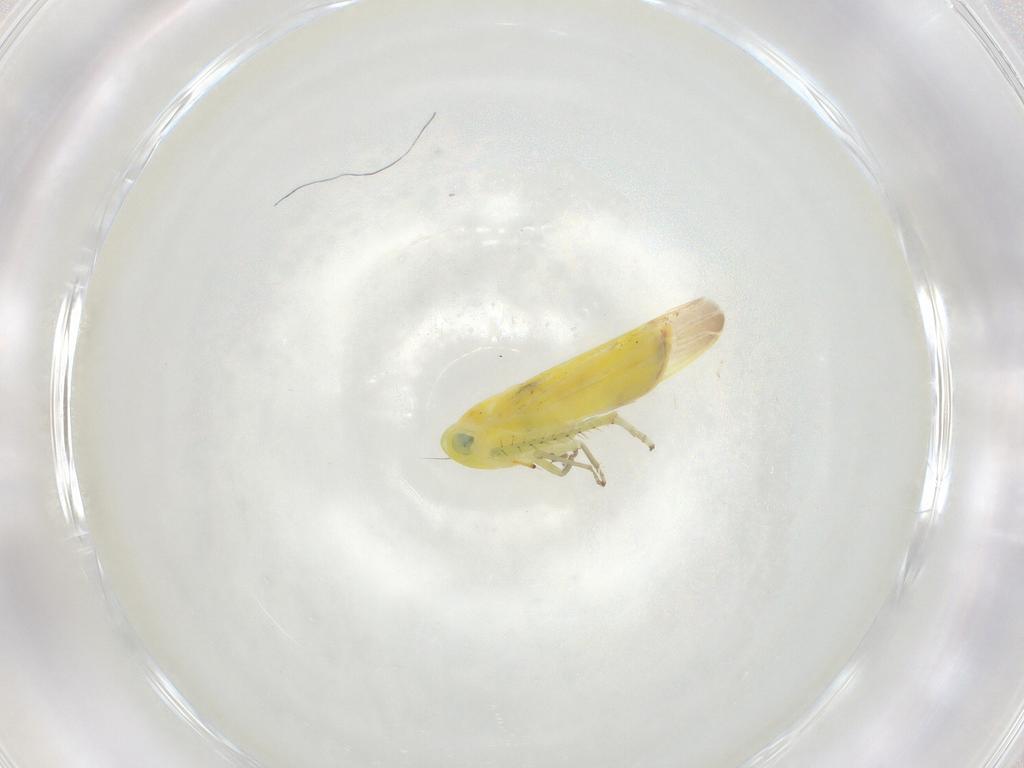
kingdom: Animalia
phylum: Arthropoda
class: Insecta
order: Hemiptera
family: Cicadellidae
